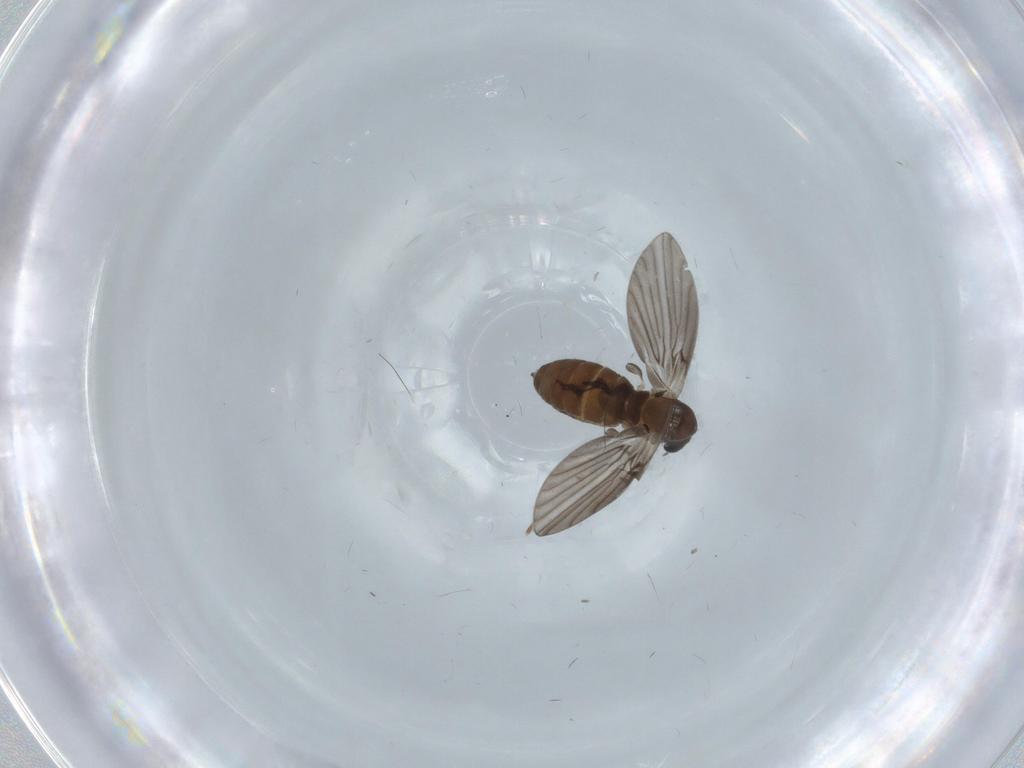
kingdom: Animalia
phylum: Arthropoda
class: Insecta
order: Diptera
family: Psychodidae
